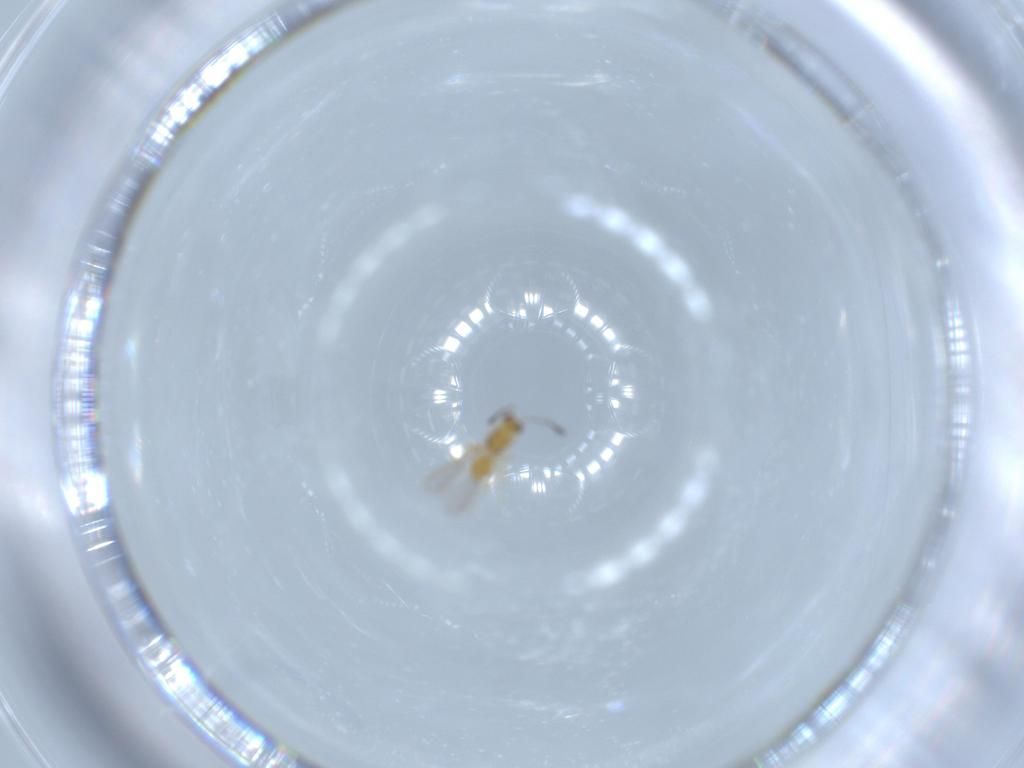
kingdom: Animalia
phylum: Arthropoda
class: Insecta
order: Hymenoptera
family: Mymaridae
